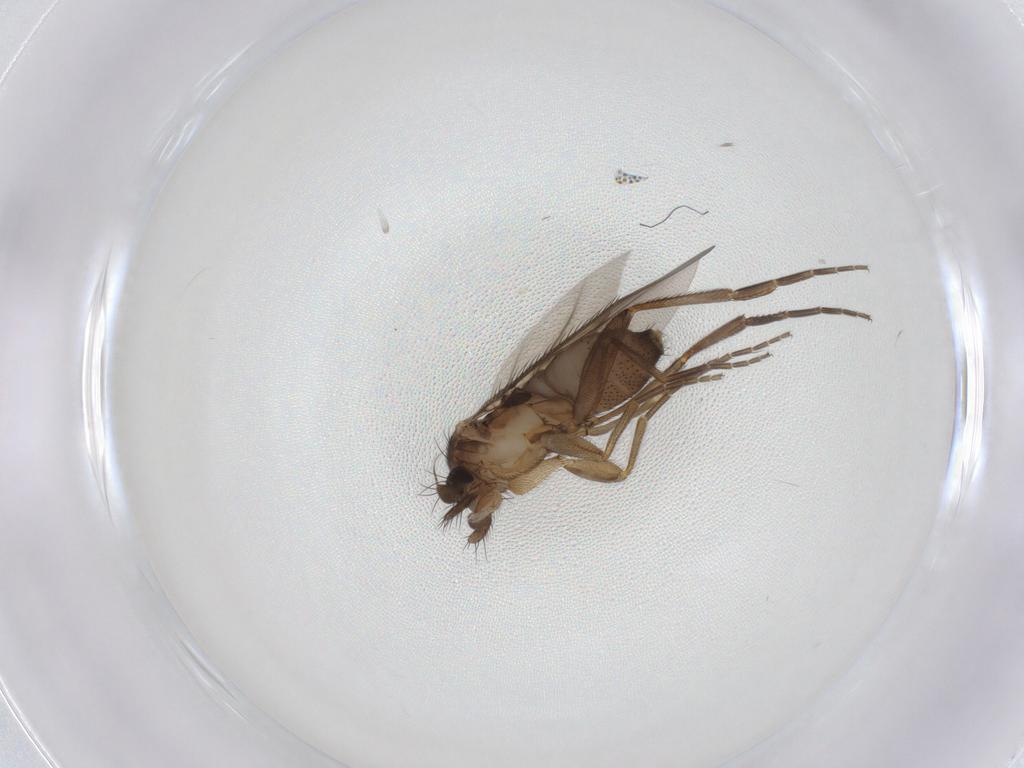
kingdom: Animalia
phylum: Arthropoda
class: Insecta
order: Diptera
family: Phoridae
